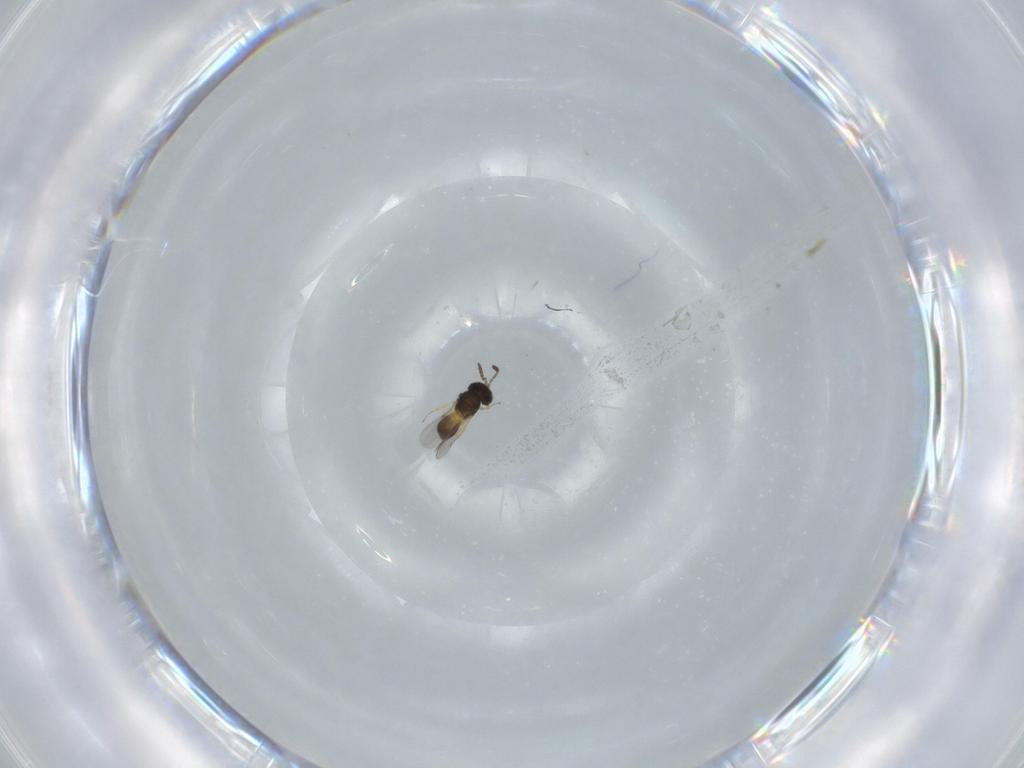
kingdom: Animalia
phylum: Arthropoda
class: Insecta
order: Hymenoptera
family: Scelionidae
